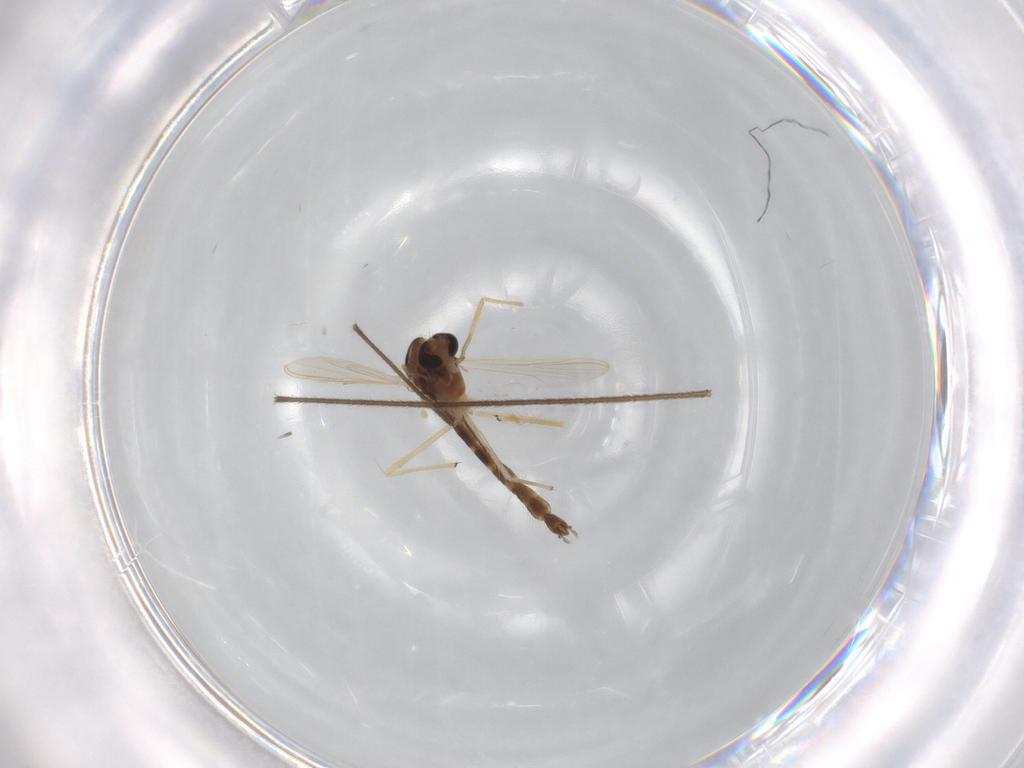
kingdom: Animalia
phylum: Arthropoda
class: Insecta
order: Diptera
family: Chironomidae
